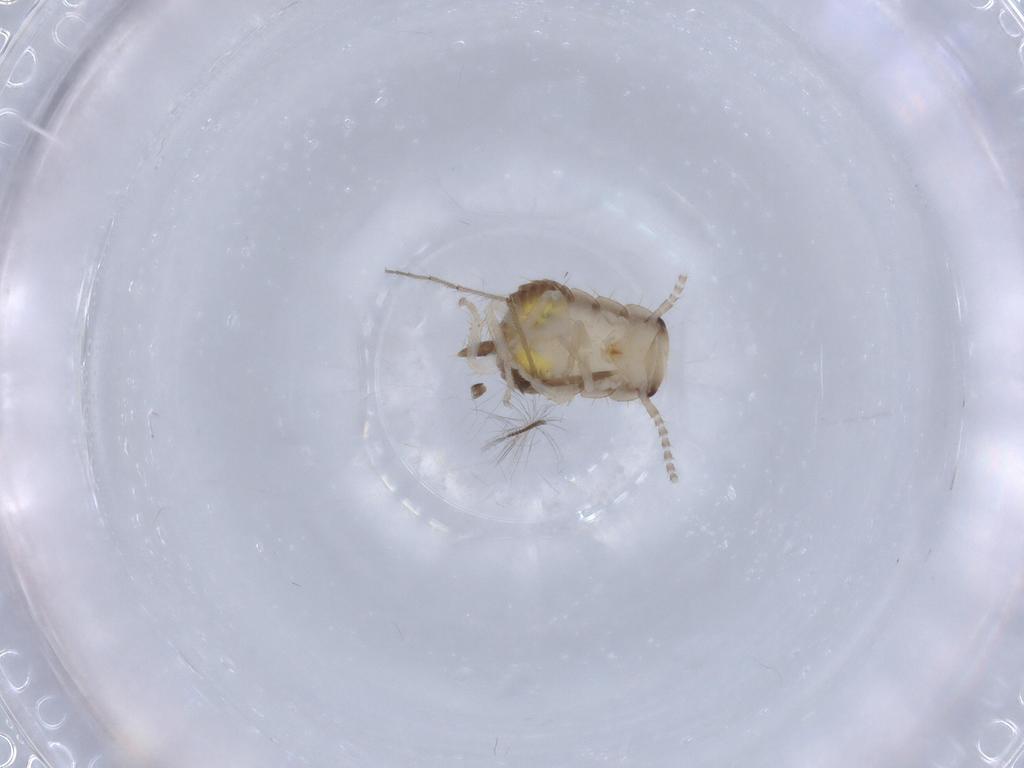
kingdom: Animalia
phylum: Arthropoda
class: Insecta
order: Blattodea
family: Ectobiidae
